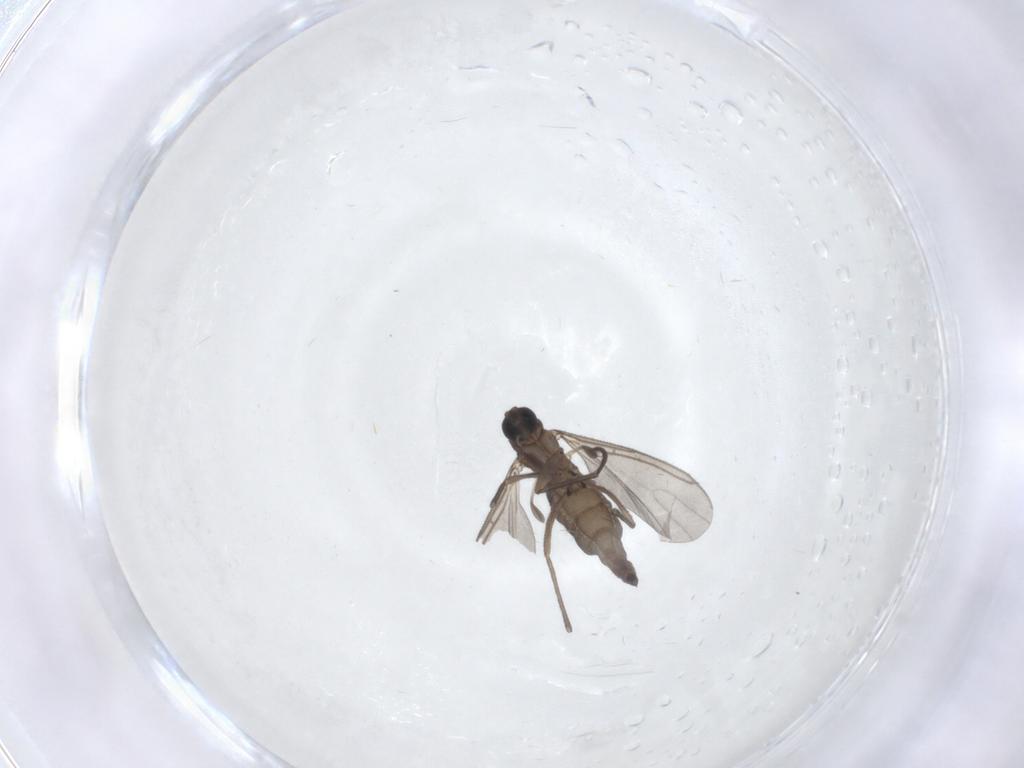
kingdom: Animalia
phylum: Arthropoda
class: Insecta
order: Diptera
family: Sciaridae
